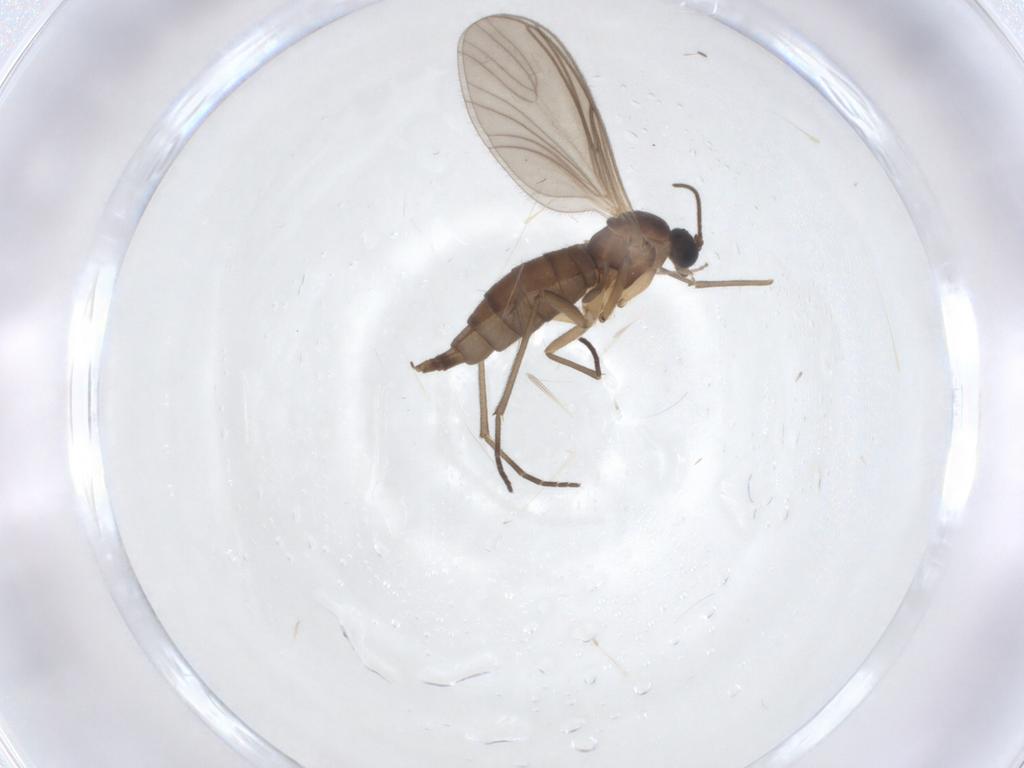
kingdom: Animalia
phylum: Arthropoda
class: Insecta
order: Diptera
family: Sciaridae
